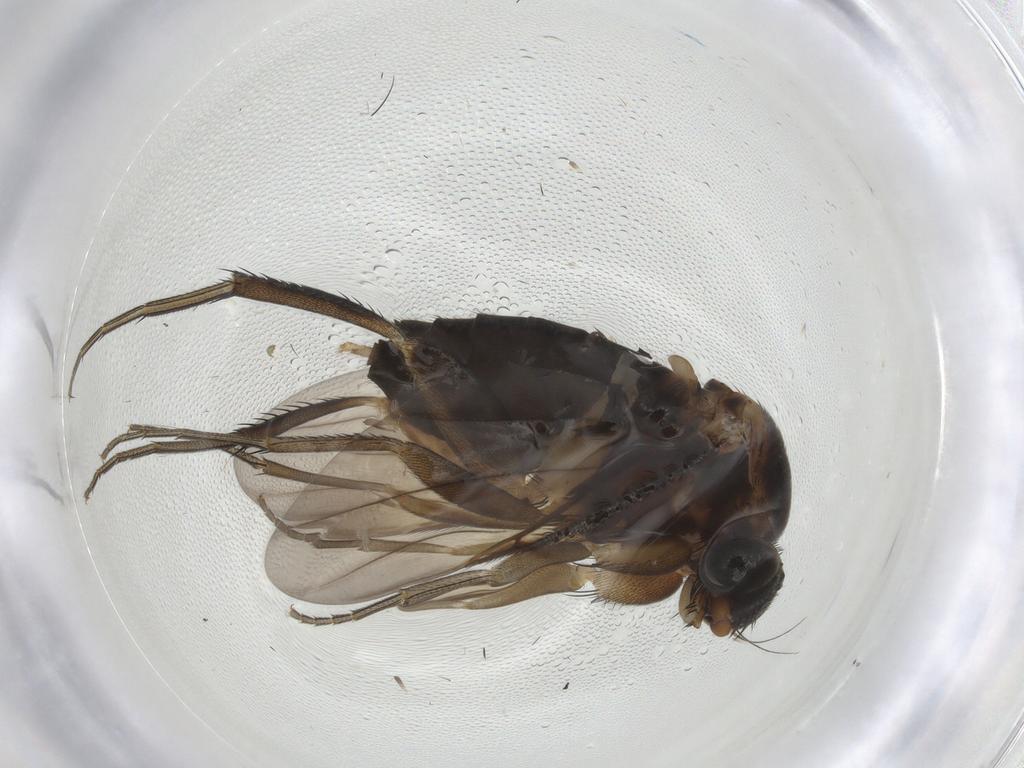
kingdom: Animalia
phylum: Arthropoda
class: Insecta
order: Diptera
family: Phoridae
